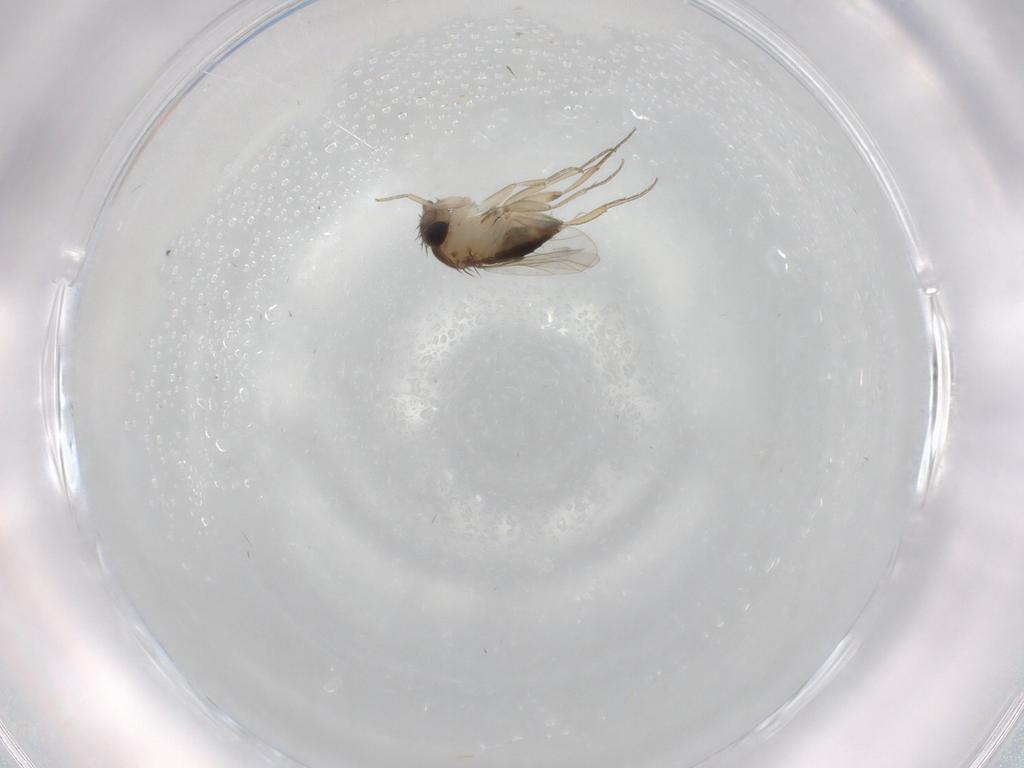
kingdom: Animalia
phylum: Arthropoda
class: Insecta
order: Diptera
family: Phoridae
